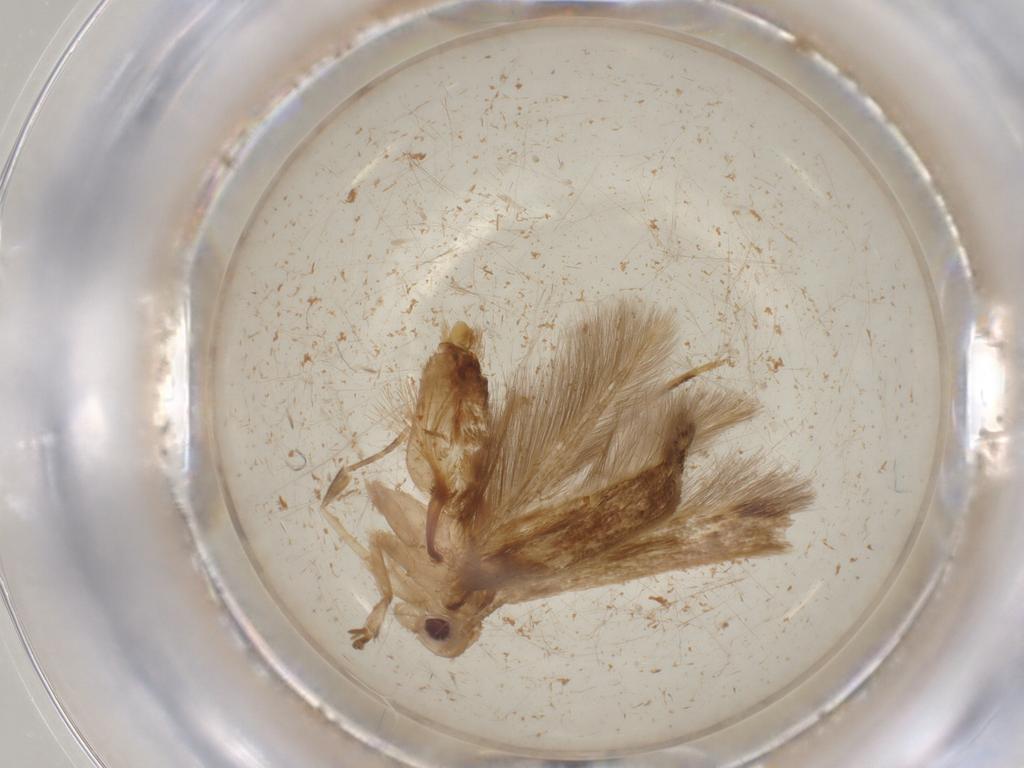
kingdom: Animalia
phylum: Arthropoda
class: Insecta
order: Lepidoptera
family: Cosmopterigidae
